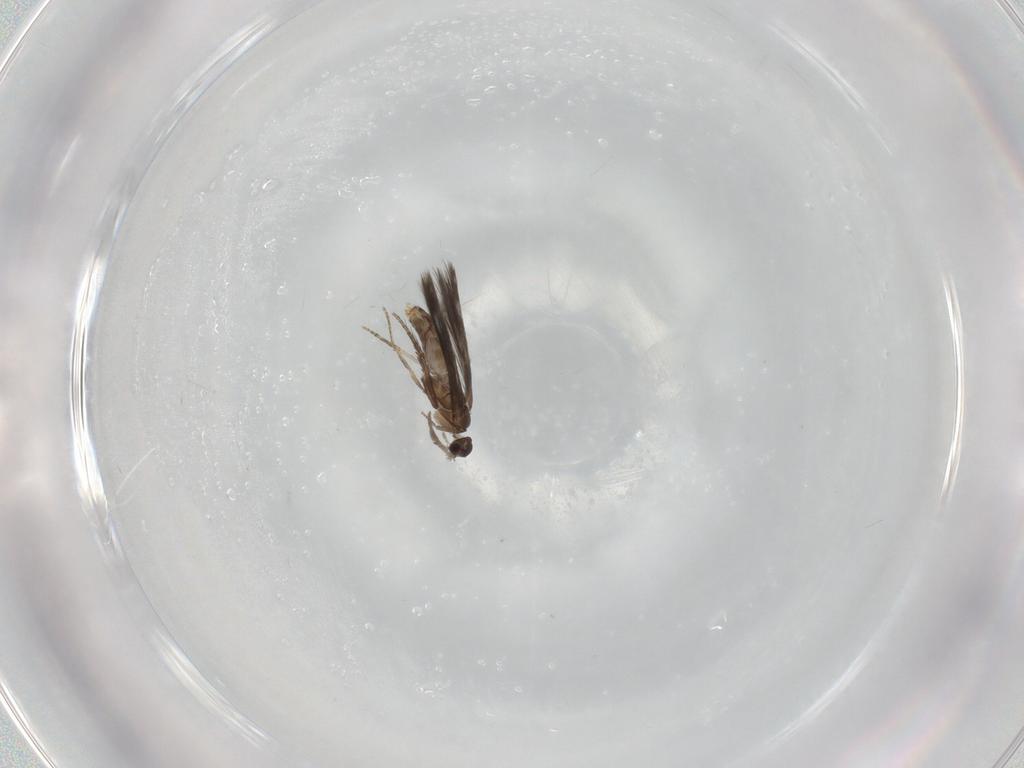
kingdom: Animalia
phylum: Arthropoda
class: Insecta
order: Trichoptera
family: Hydroptilidae
